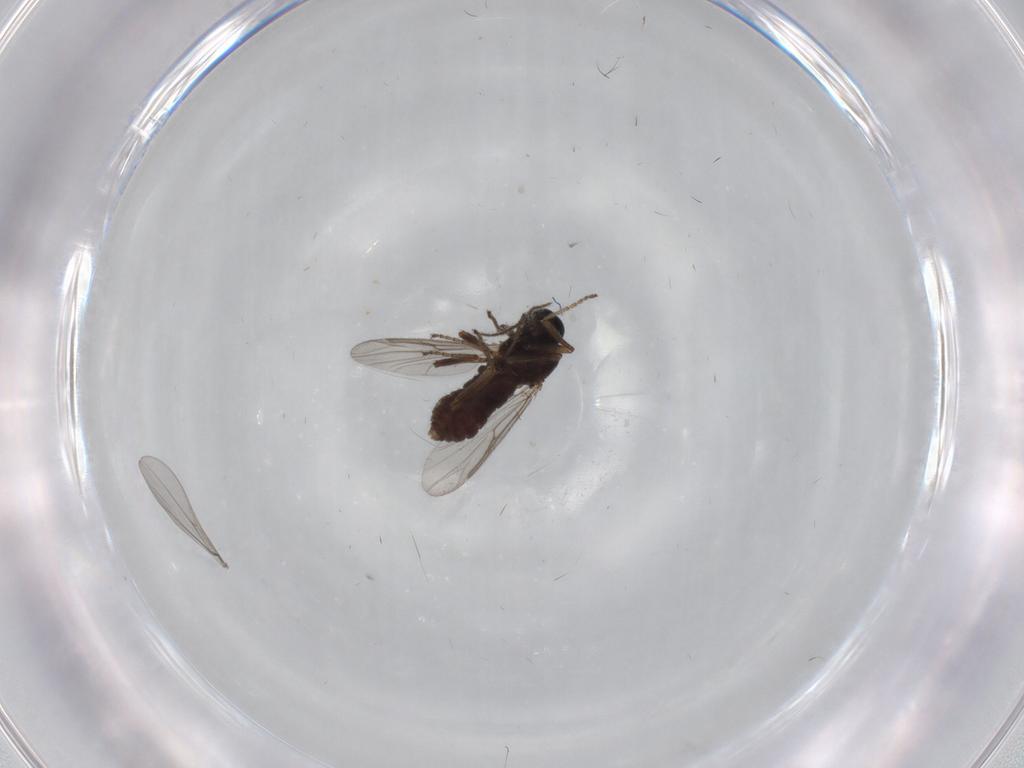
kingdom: Animalia
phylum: Arthropoda
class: Insecta
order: Diptera
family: Ceratopogonidae
